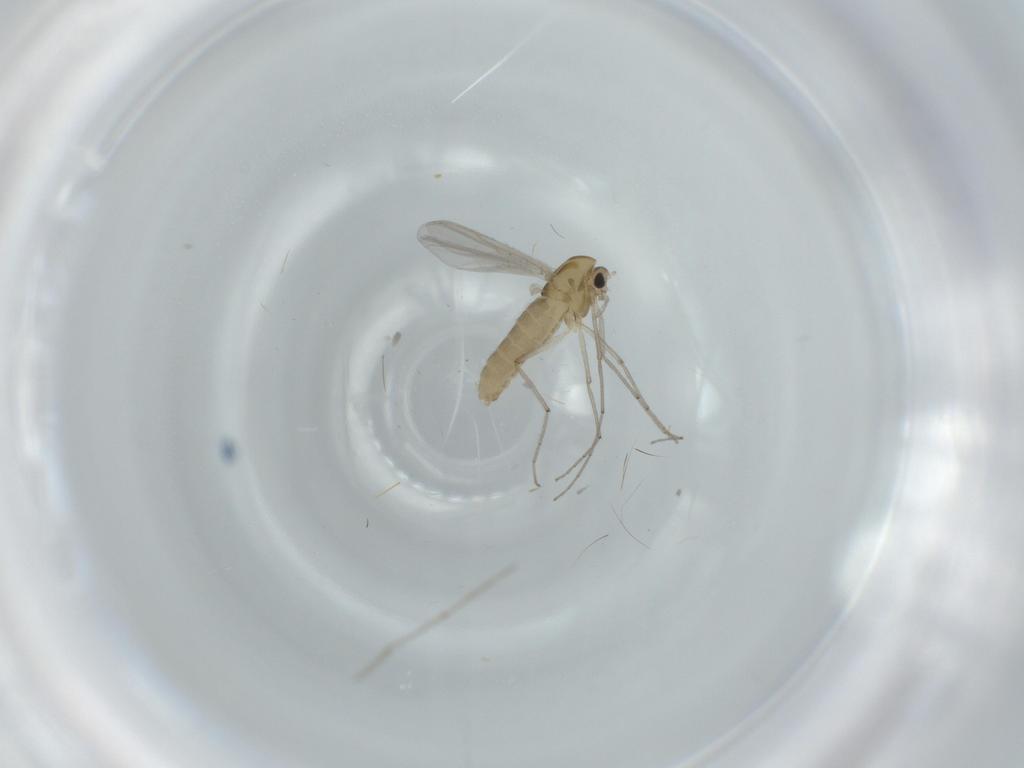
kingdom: Animalia
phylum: Arthropoda
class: Insecta
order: Diptera
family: Chironomidae
